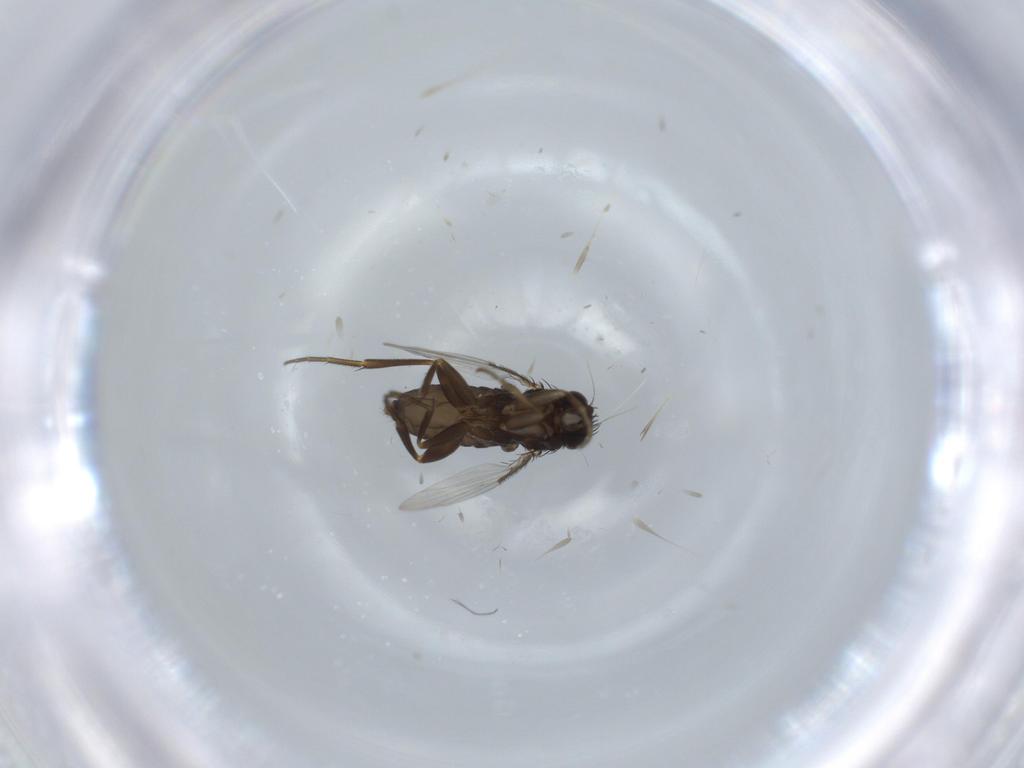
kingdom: Animalia
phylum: Arthropoda
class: Insecta
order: Diptera
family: Phoridae
